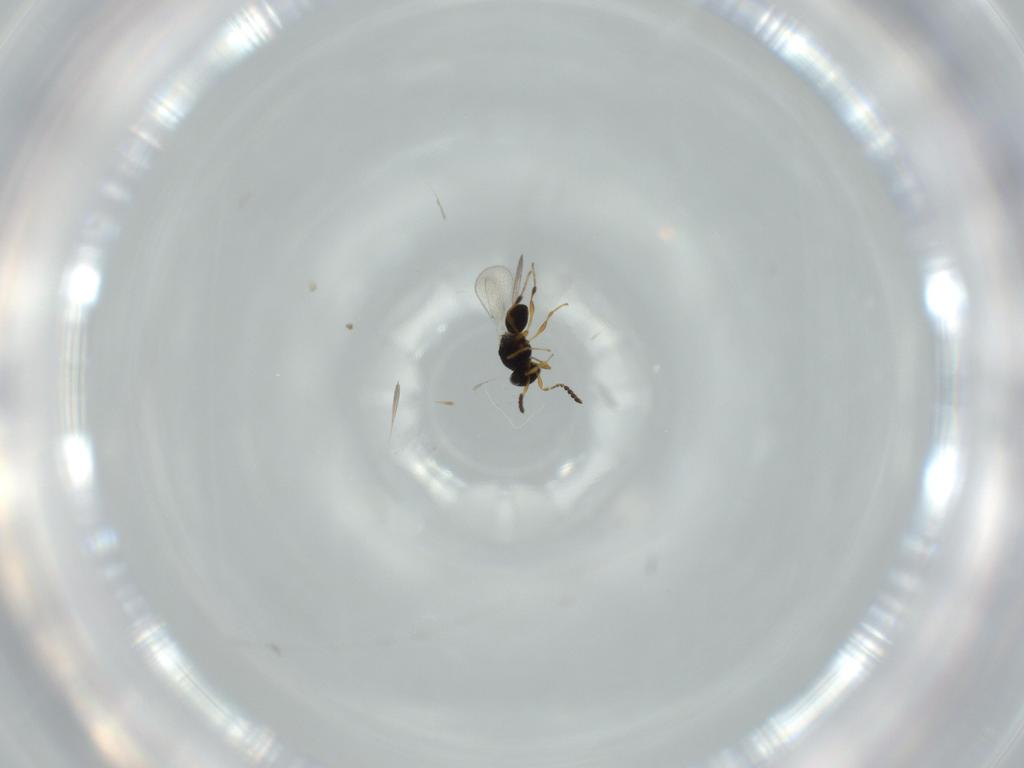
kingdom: Animalia
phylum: Arthropoda
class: Insecta
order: Hymenoptera
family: Platygastridae
